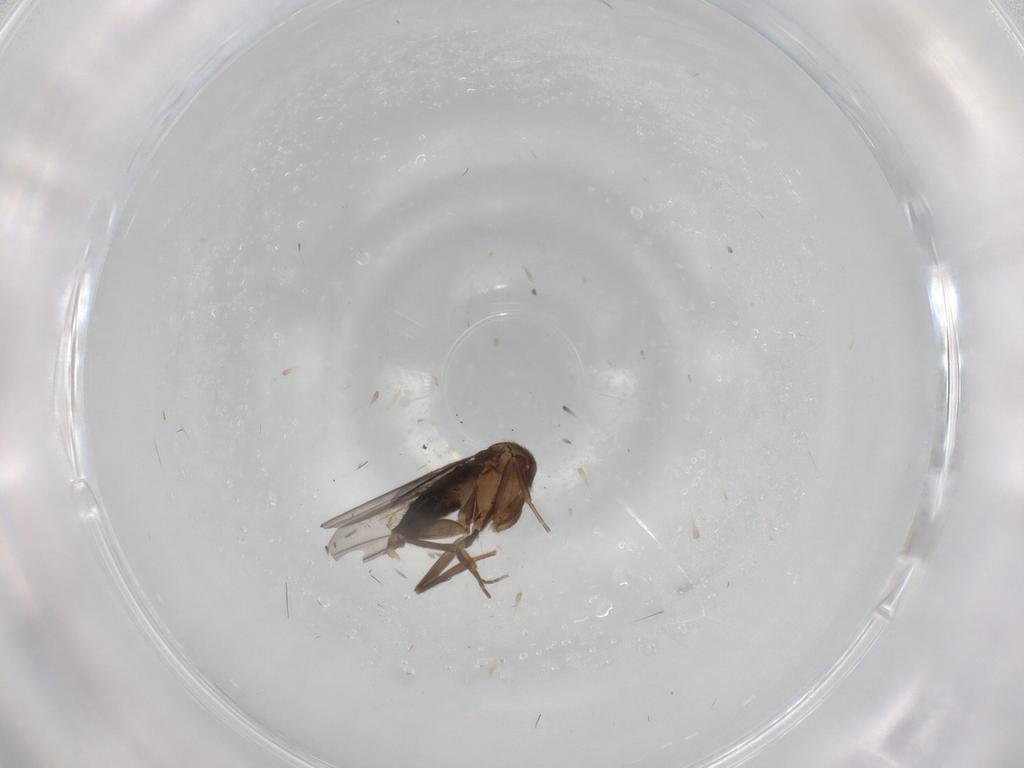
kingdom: Animalia
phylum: Arthropoda
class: Insecta
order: Diptera
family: Phoridae
